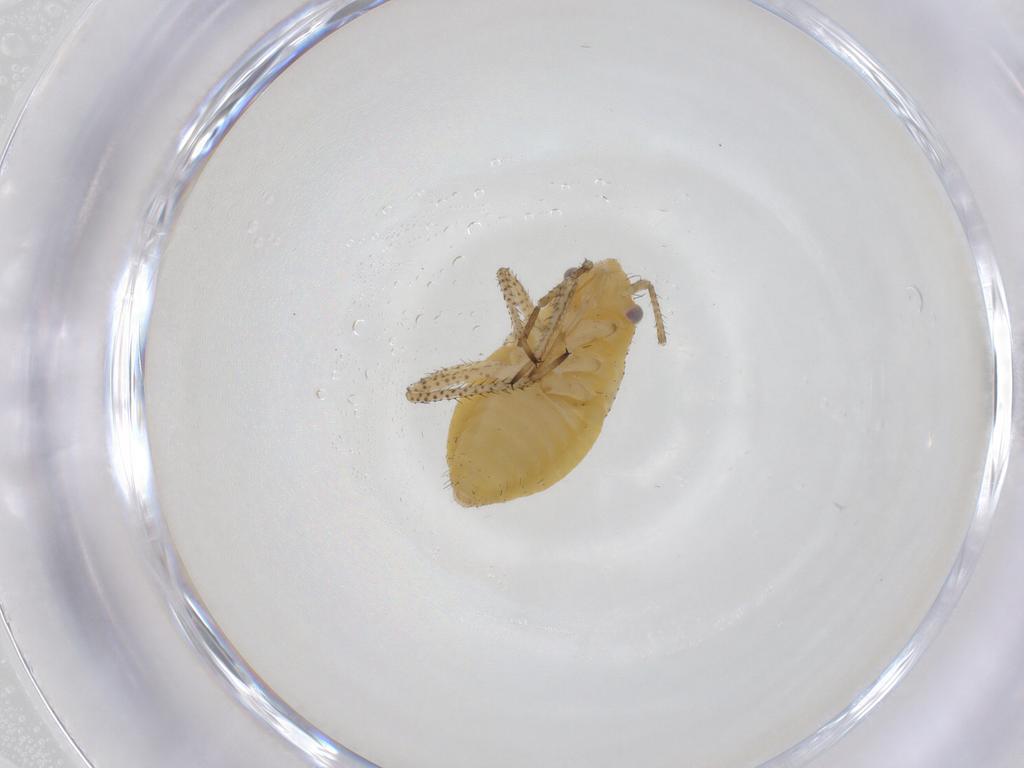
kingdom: Animalia
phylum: Arthropoda
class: Insecta
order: Hemiptera
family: Miridae
